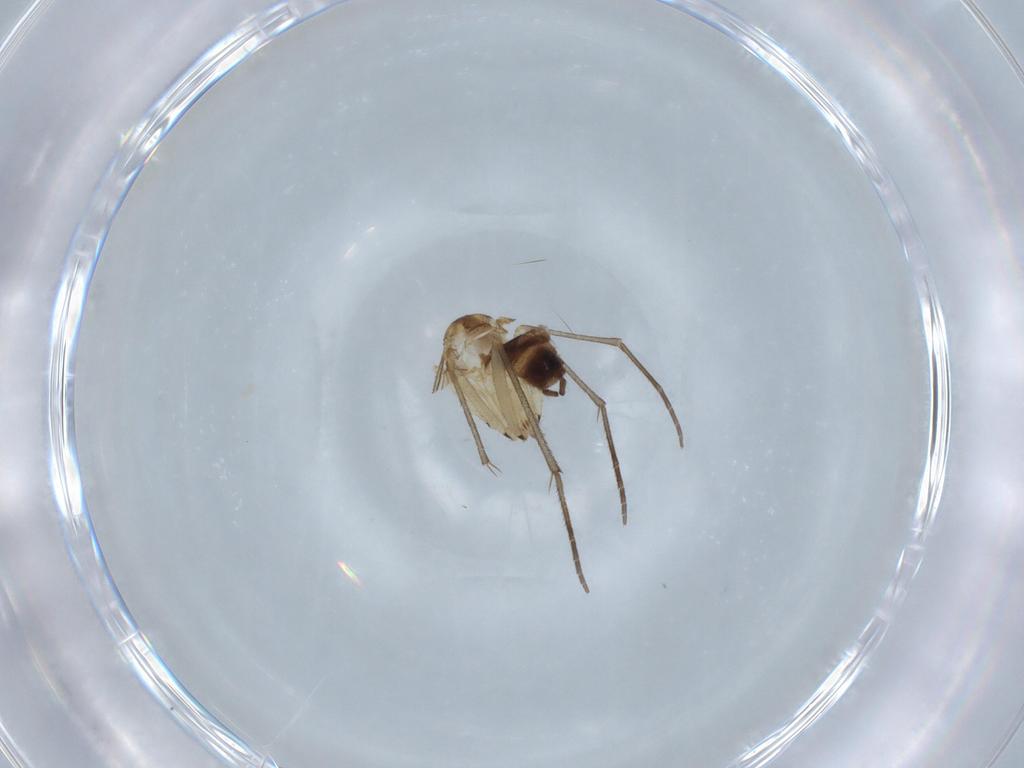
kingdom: Animalia
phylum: Arthropoda
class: Insecta
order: Diptera
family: Sciaridae
